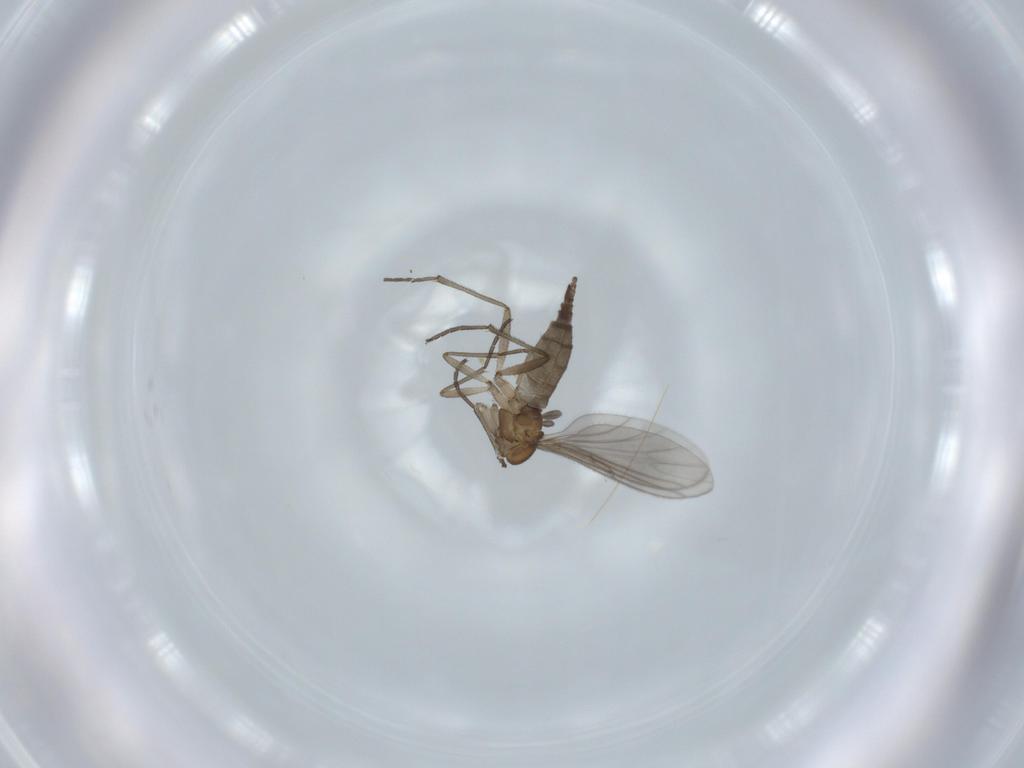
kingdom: Animalia
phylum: Arthropoda
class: Insecta
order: Diptera
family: Sciaridae
